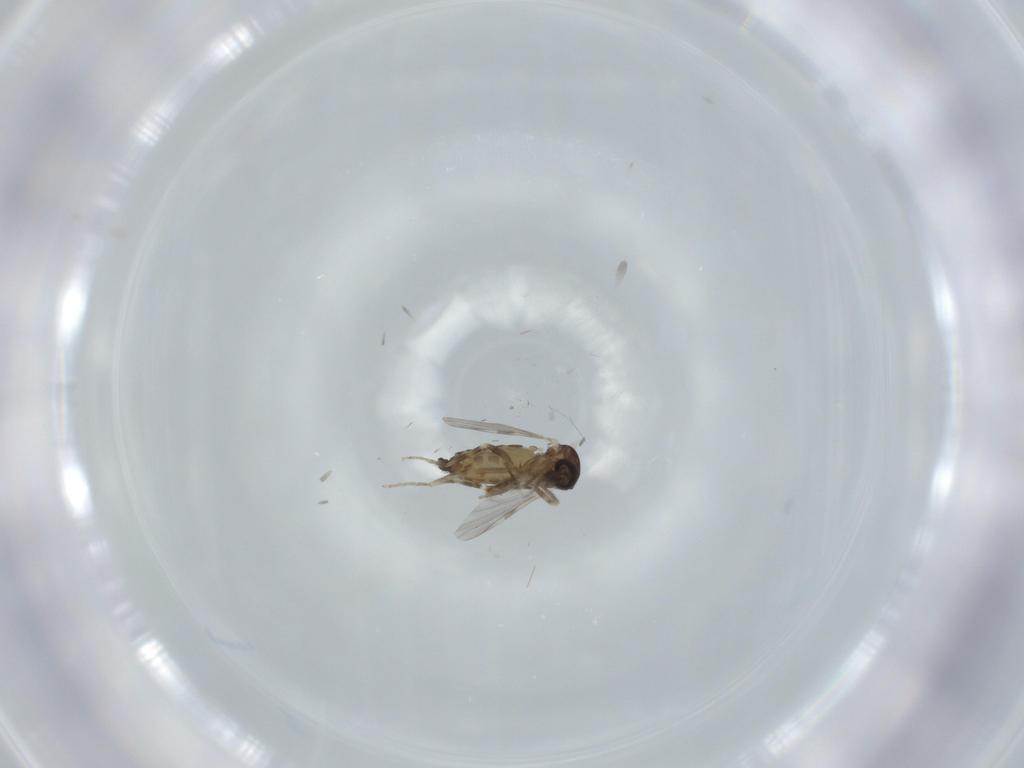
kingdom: Animalia
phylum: Arthropoda
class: Insecta
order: Diptera
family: Ceratopogonidae
